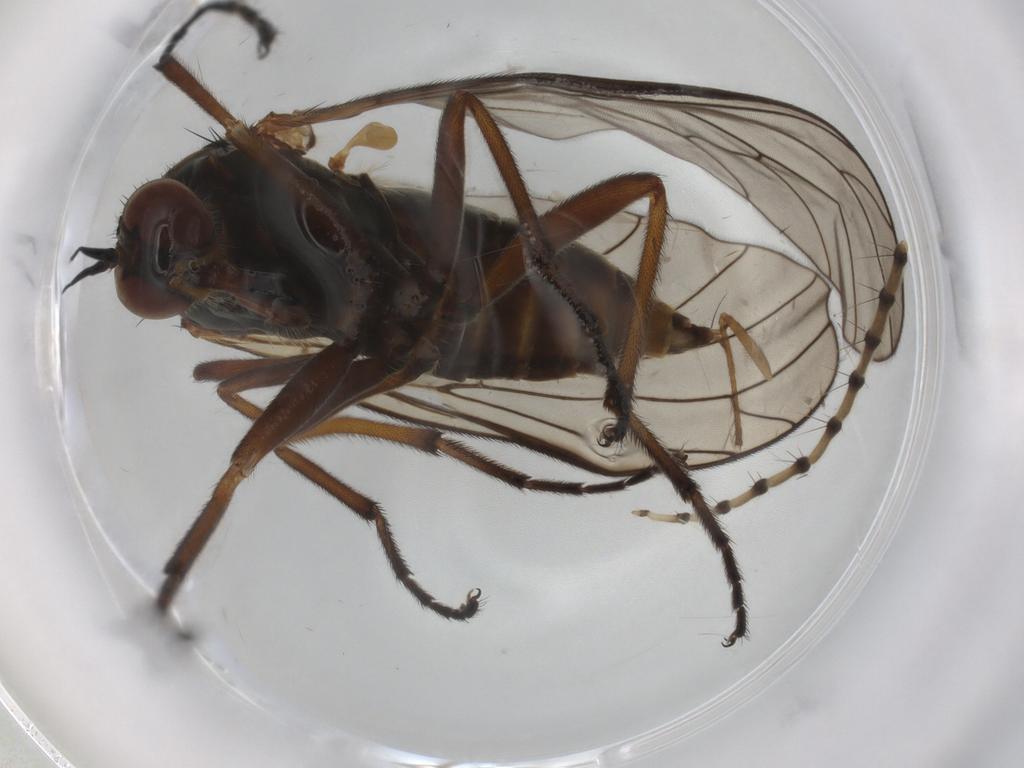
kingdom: Animalia
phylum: Arthropoda
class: Insecta
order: Diptera
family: Empididae
